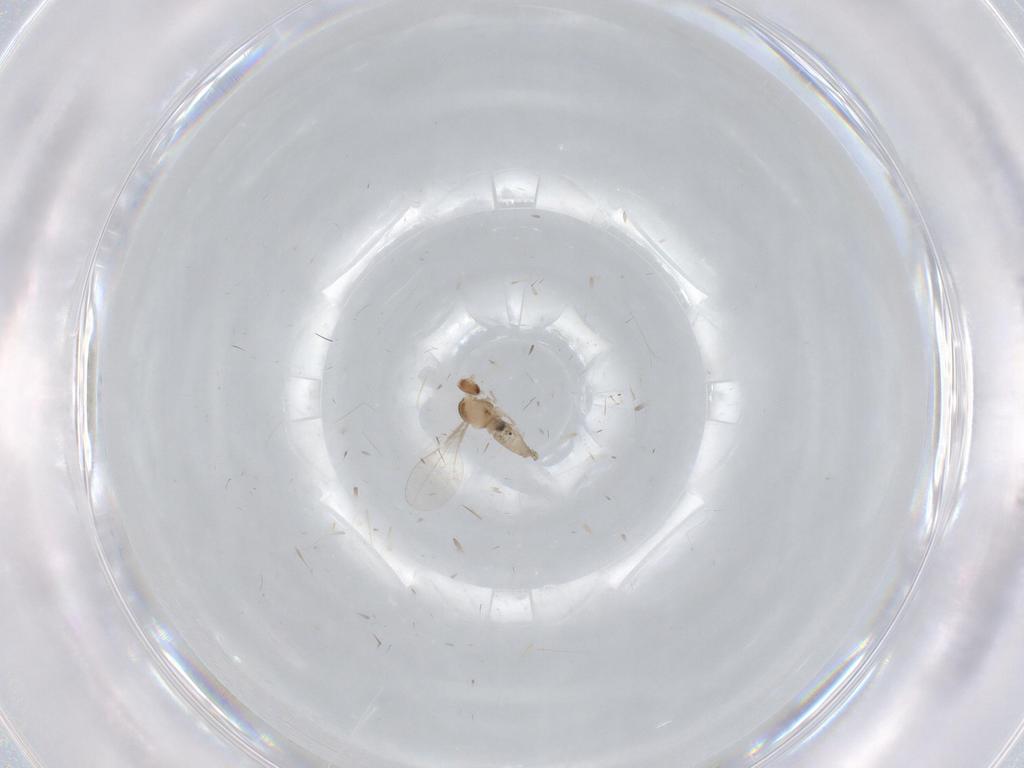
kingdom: Animalia
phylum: Arthropoda
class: Insecta
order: Diptera
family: Cecidomyiidae
